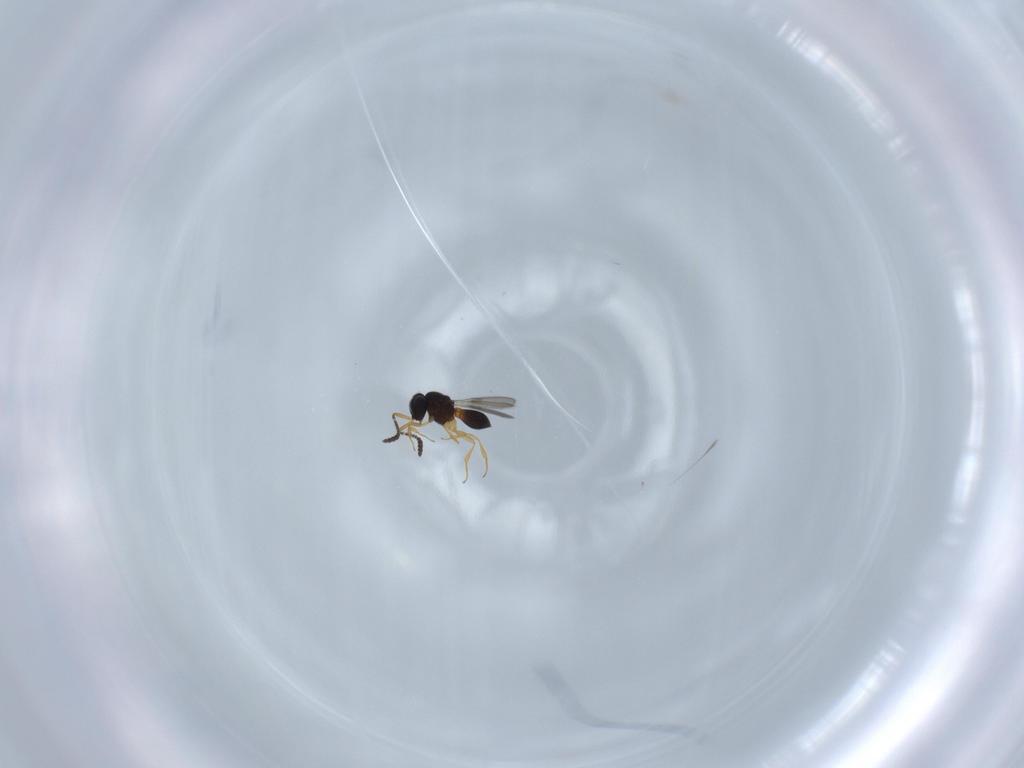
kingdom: Animalia
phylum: Arthropoda
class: Insecta
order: Hymenoptera
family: Scelionidae
